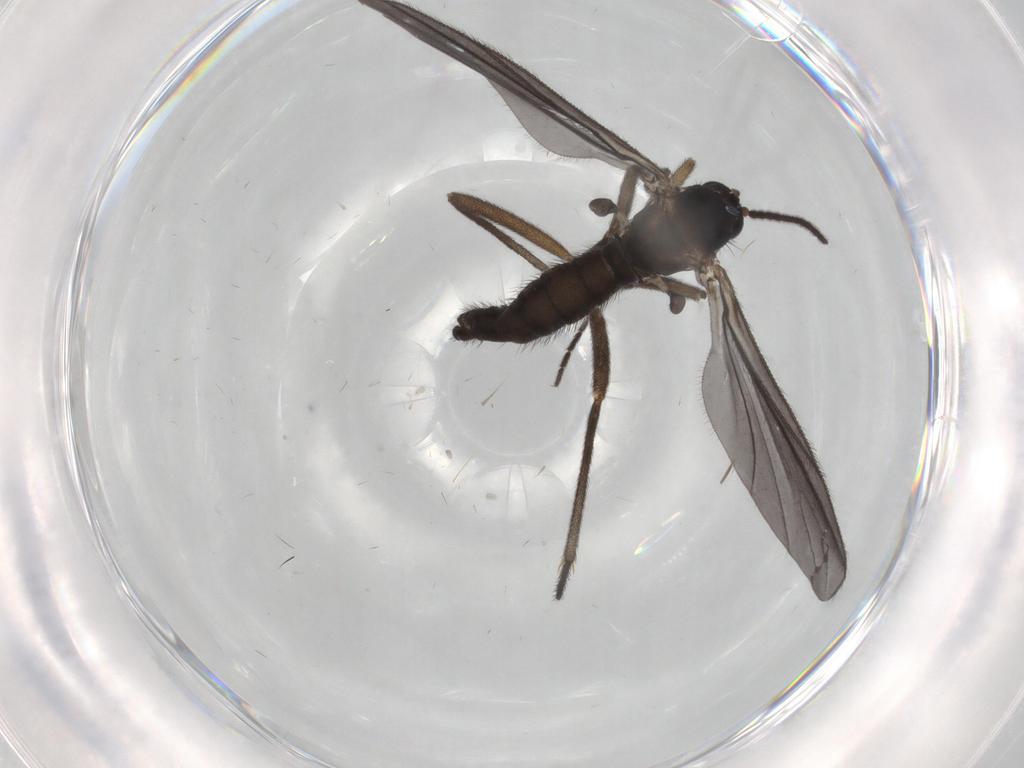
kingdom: Animalia
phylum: Arthropoda
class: Insecta
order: Diptera
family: Sciaridae
